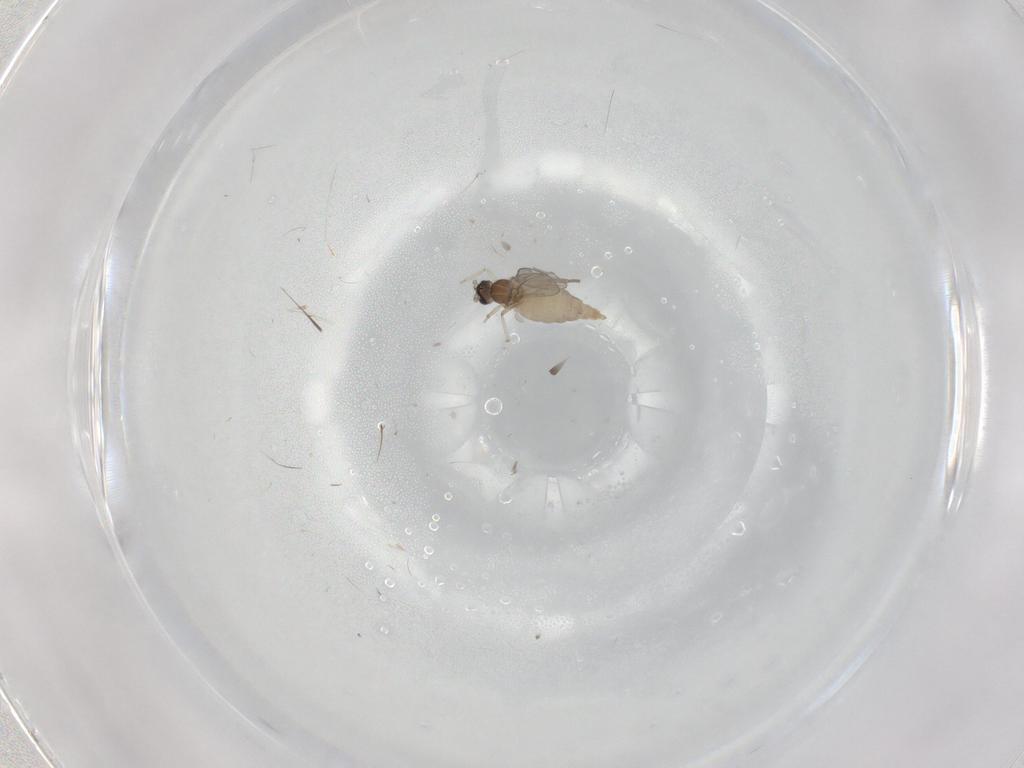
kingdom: Animalia
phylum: Arthropoda
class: Insecta
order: Diptera
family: Cecidomyiidae
